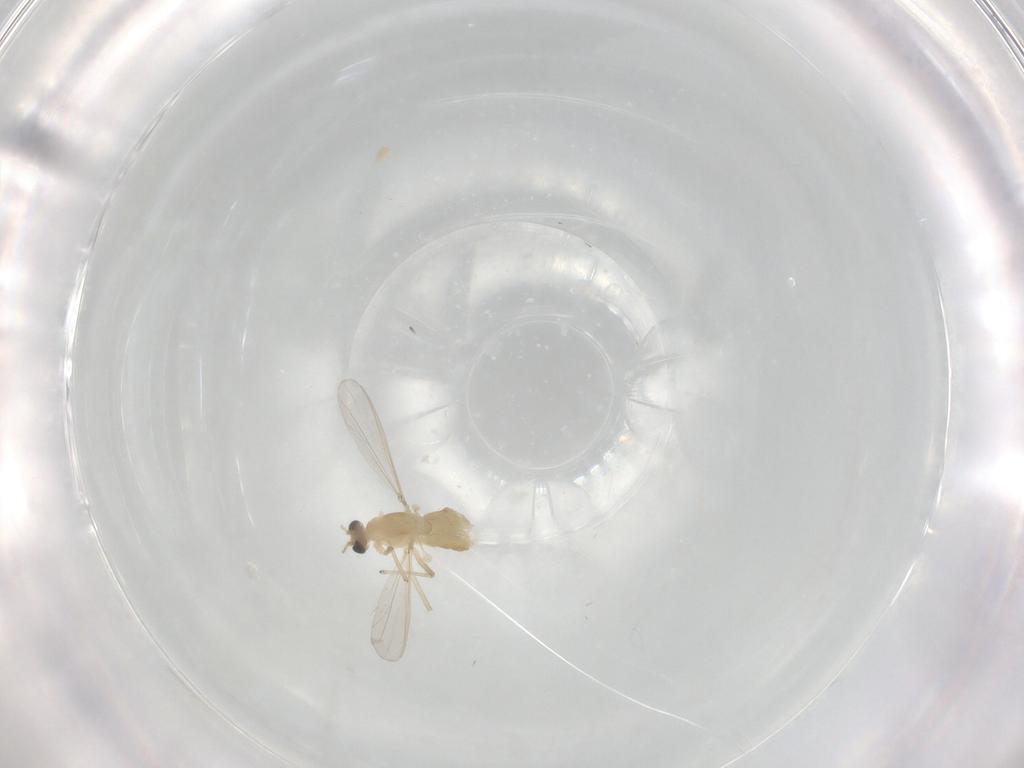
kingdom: Animalia
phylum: Arthropoda
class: Insecta
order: Diptera
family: Chironomidae
